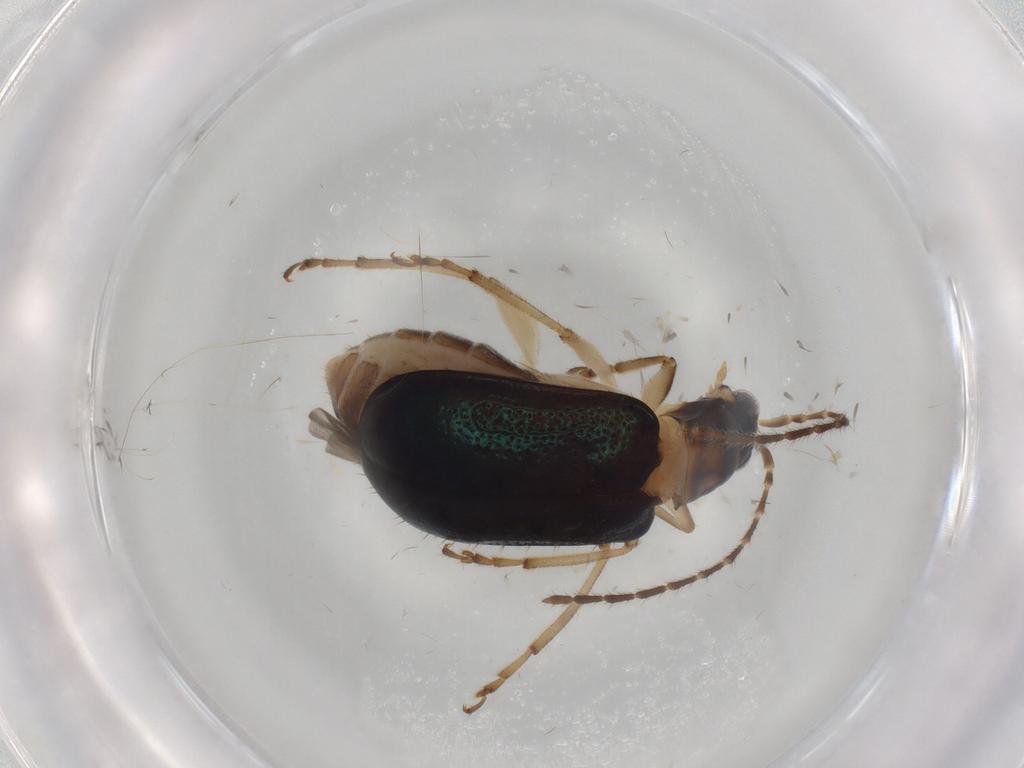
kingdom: Animalia
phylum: Arthropoda
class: Insecta
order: Coleoptera
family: Chrysomelidae
